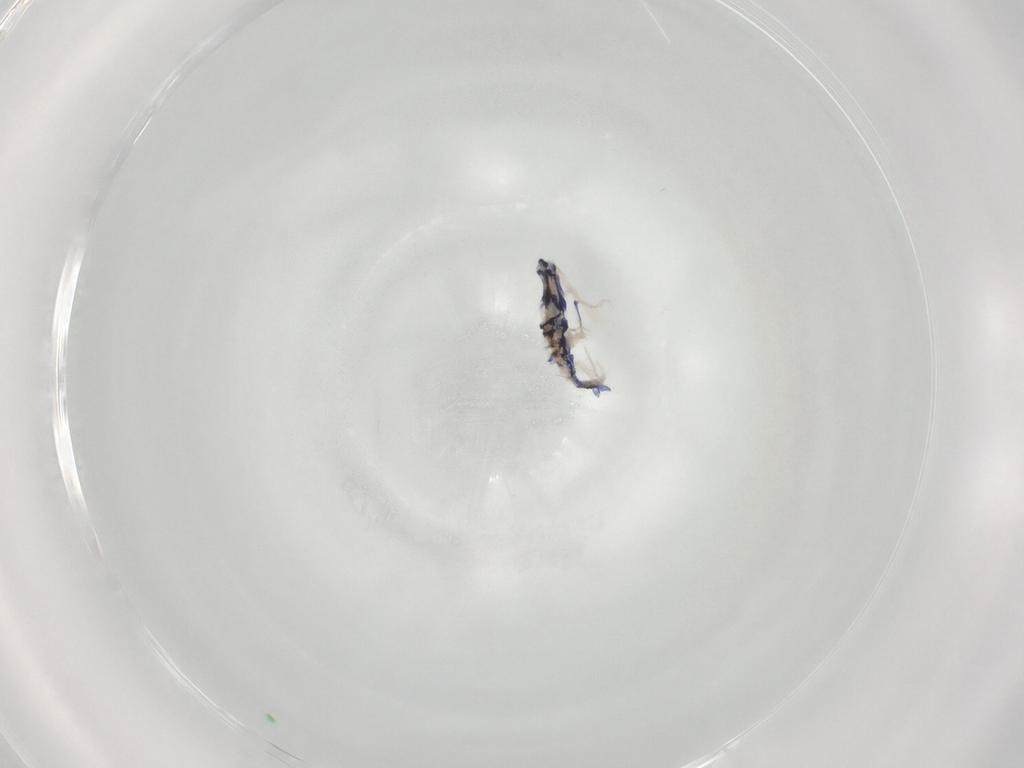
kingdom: Animalia
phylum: Arthropoda
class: Collembola
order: Entomobryomorpha
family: Entomobryidae
